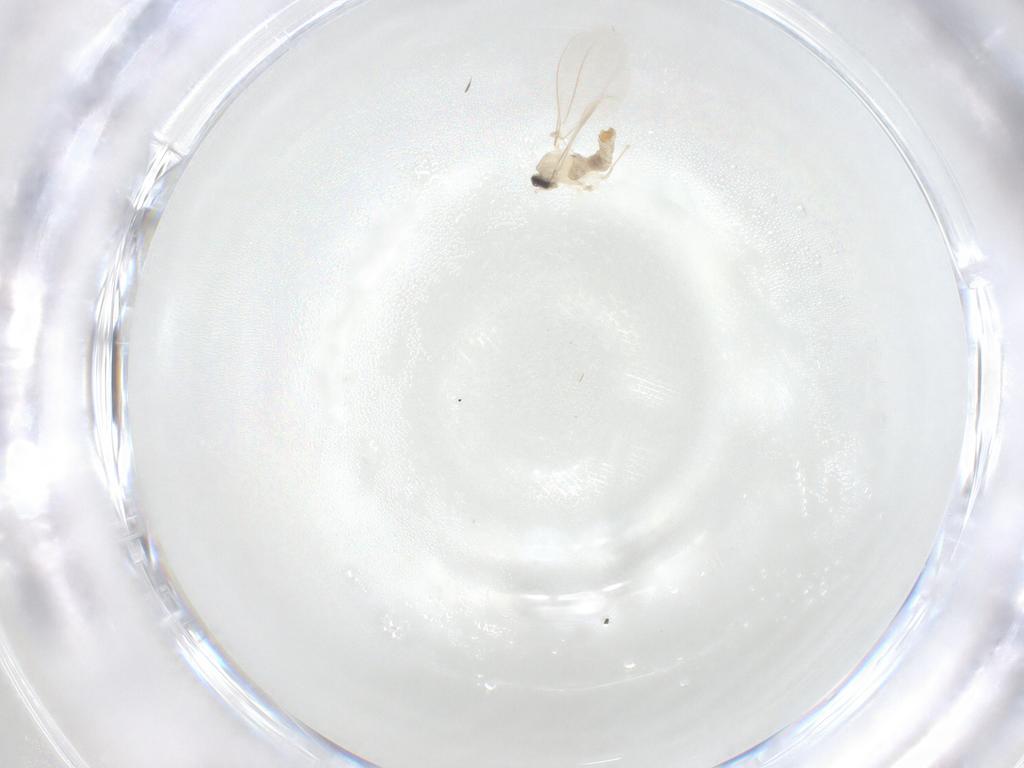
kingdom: Animalia
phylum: Arthropoda
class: Insecta
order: Diptera
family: Cecidomyiidae
